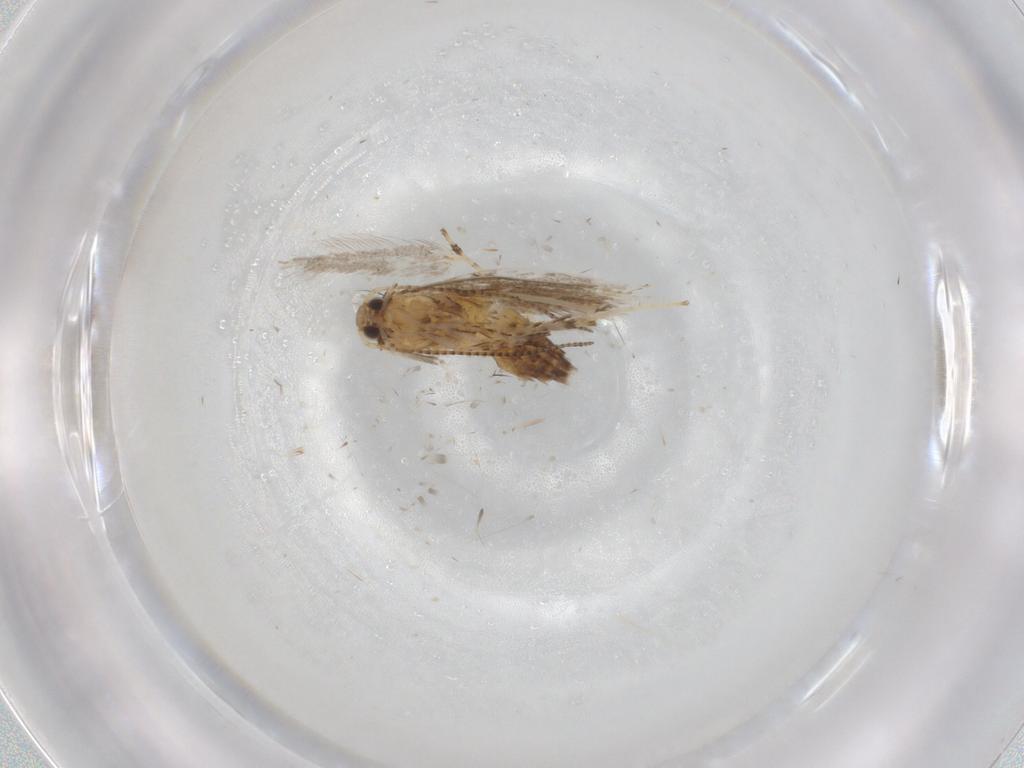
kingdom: Animalia
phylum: Arthropoda
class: Insecta
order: Lepidoptera
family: Gracillariidae
